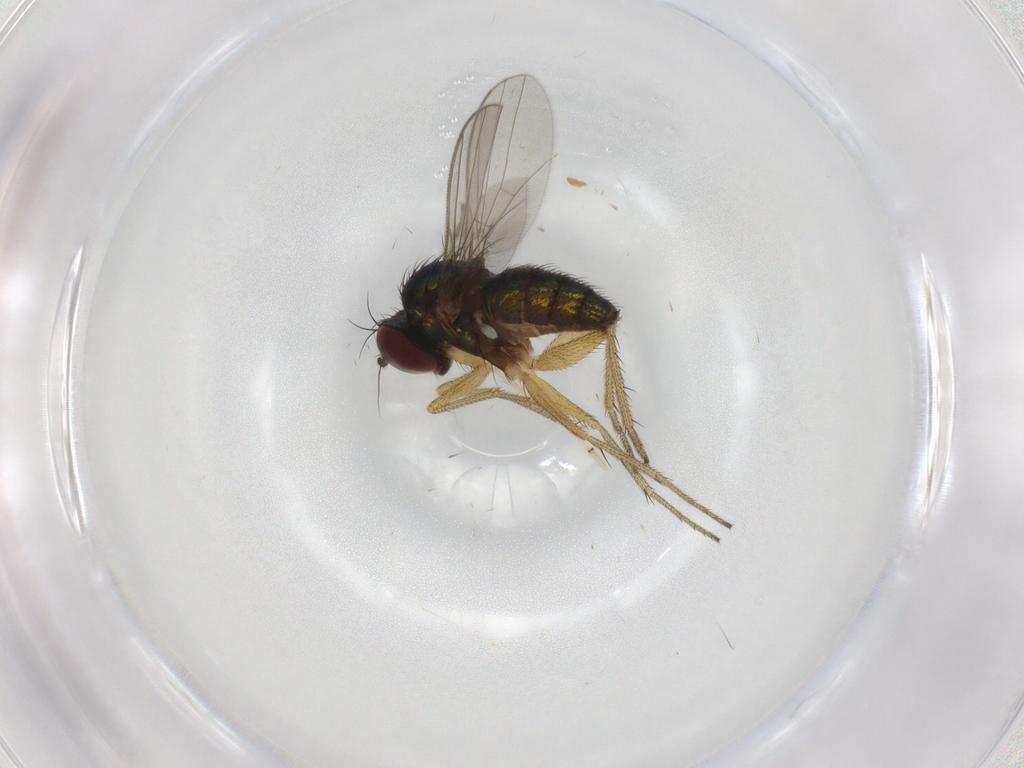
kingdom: Animalia
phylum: Arthropoda
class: Insecta
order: Diptera
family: Dolichopodidae
